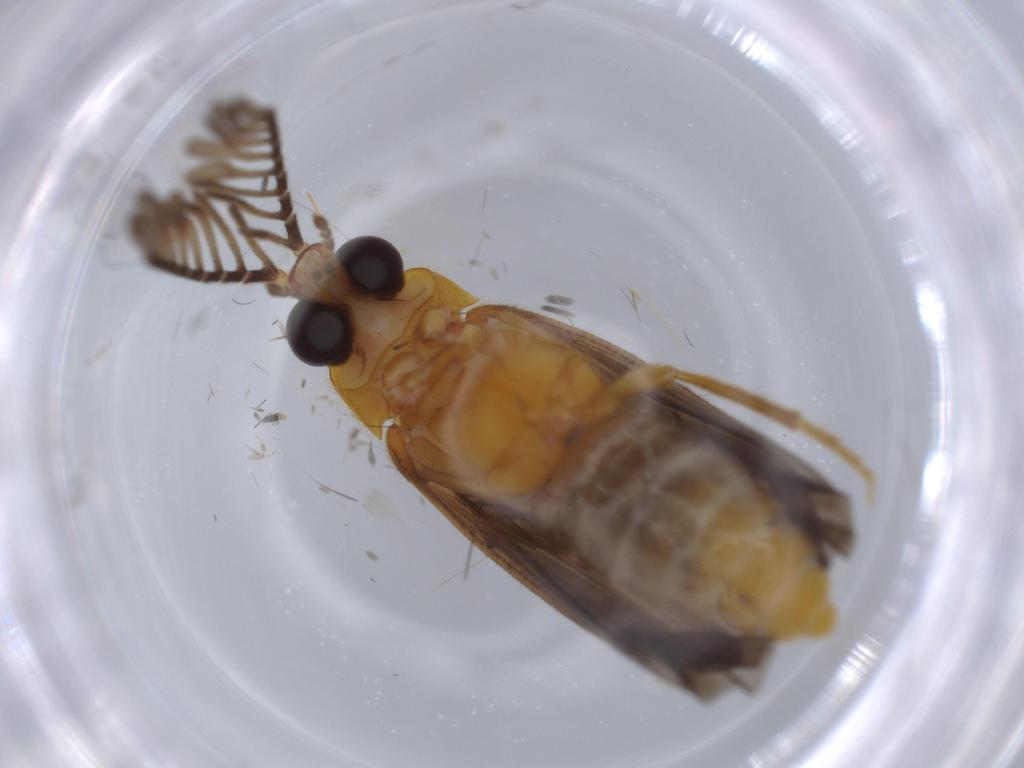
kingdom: Animalia
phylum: Arthropoda
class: Insecta
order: Coleoptera
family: Lampyridae
